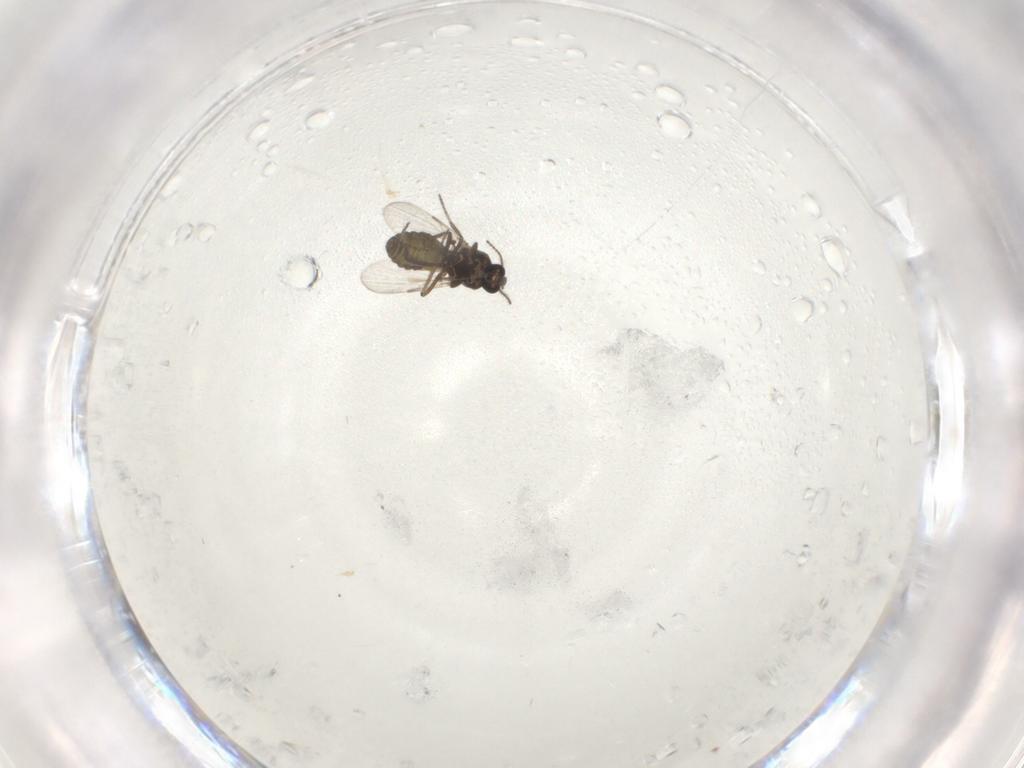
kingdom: Animalia
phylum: Arthropoda
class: Insecta
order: Diptera
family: Ceratopogonidae
